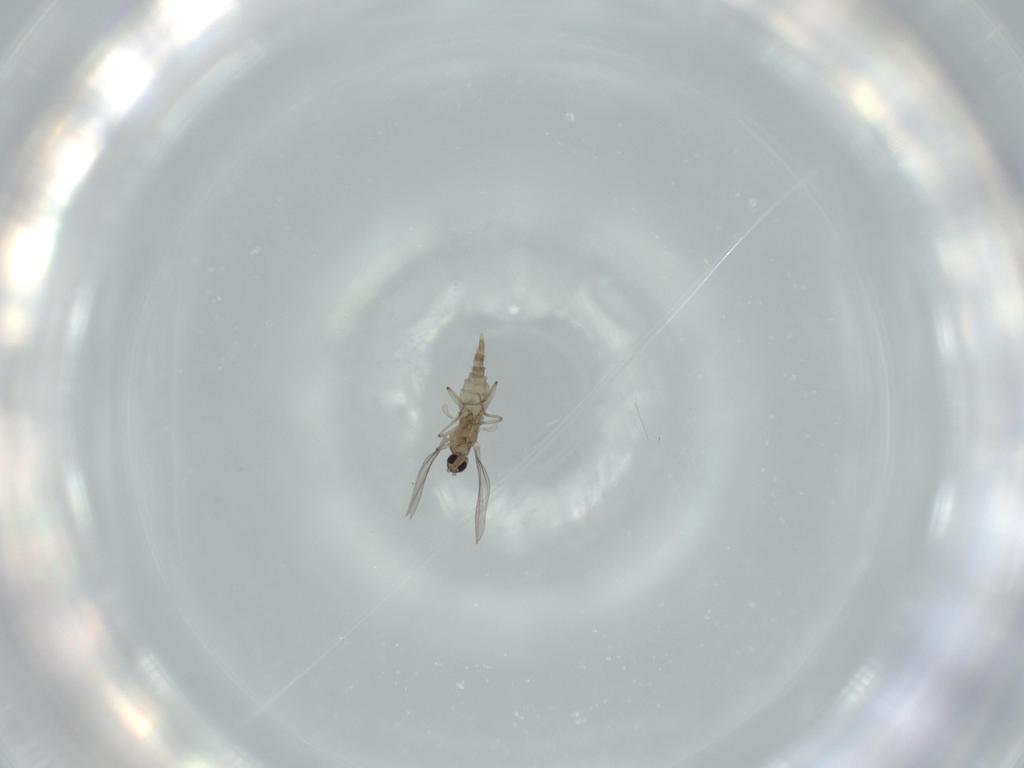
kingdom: Animalia
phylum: Arthropoda
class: Insecta
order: Diptera
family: Cecidomyiidae
